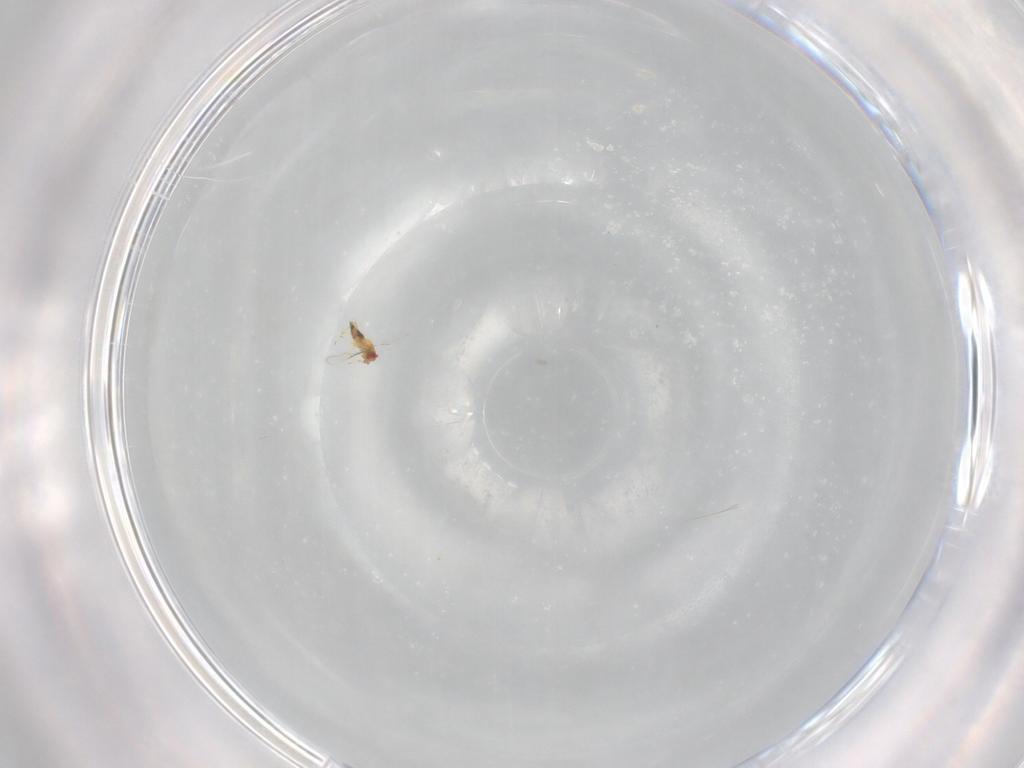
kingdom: Animalia
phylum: Arthropoda
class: Insecta
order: Hymenoptera
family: Trichogrammatidae
